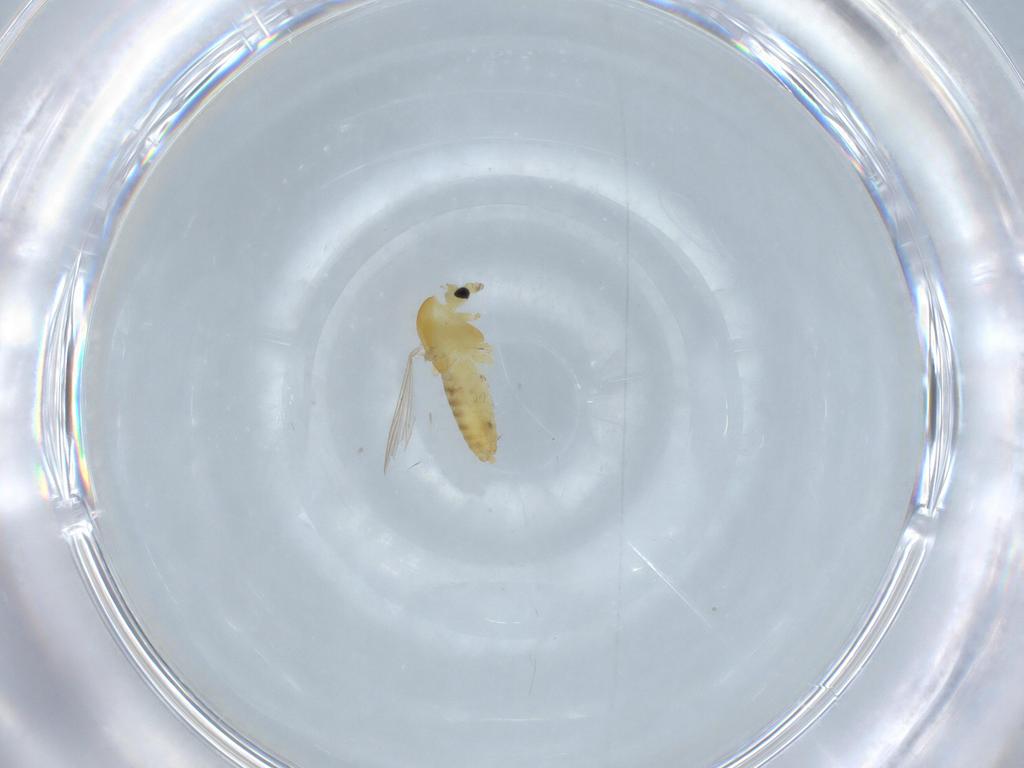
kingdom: Animalia
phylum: Arthropoda
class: Insecta
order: Diptera
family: Chironomidae
